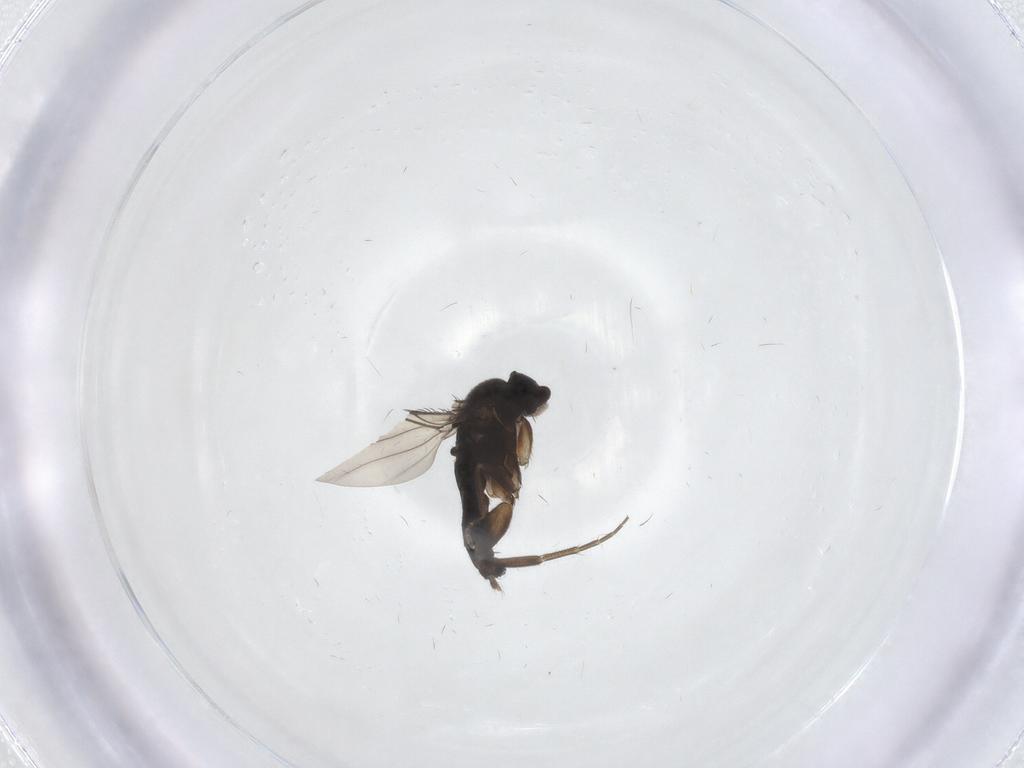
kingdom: Animalia
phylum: Arthropoda
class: Insecta
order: Diptera
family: Phoridae
